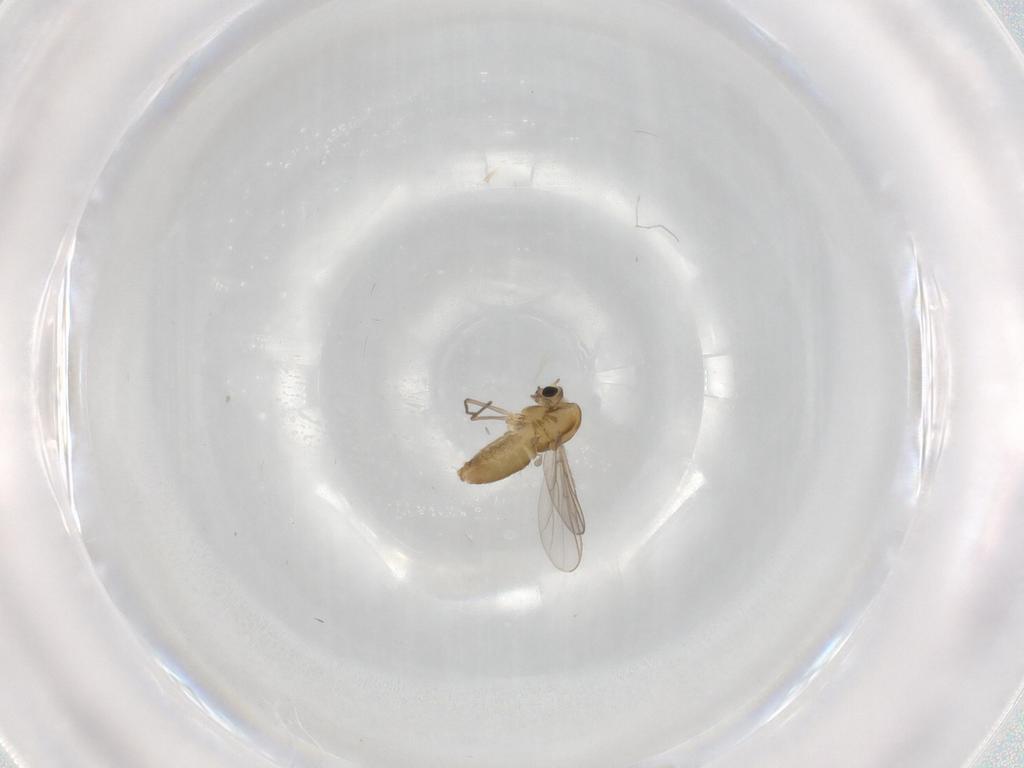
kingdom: Animalia
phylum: Arthropoda
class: Insecta
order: Diptera
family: Chironomidae
